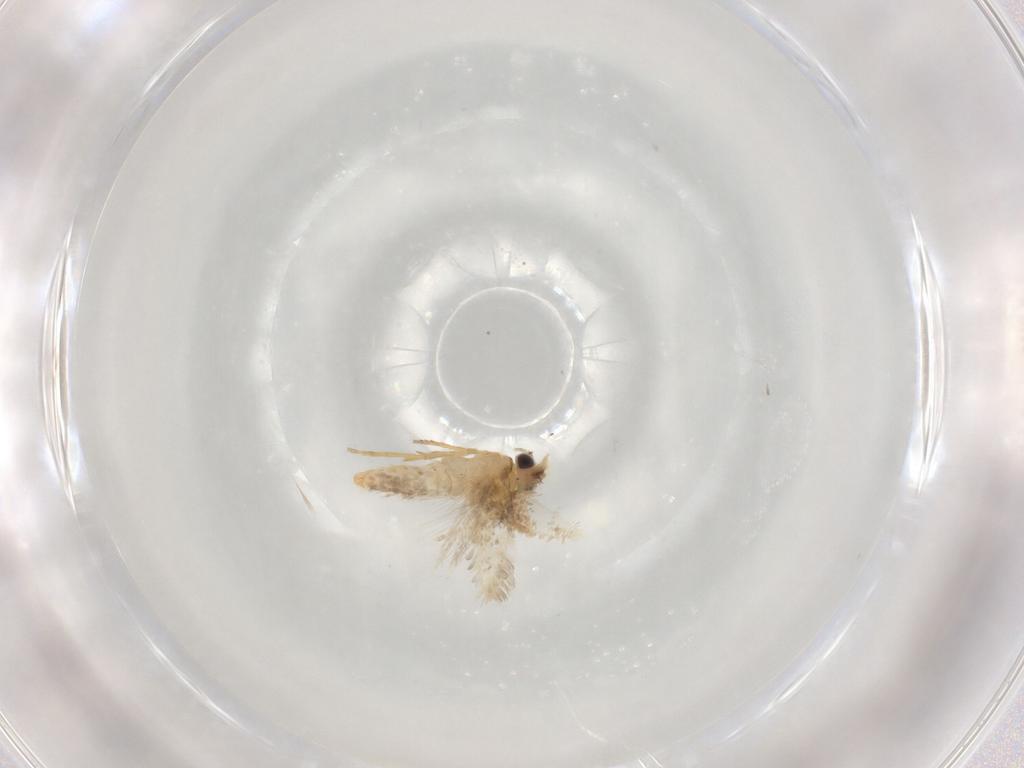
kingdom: Animalia
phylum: Arthropoda
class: Insecta
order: Lepidoptera
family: Nepticulidae
